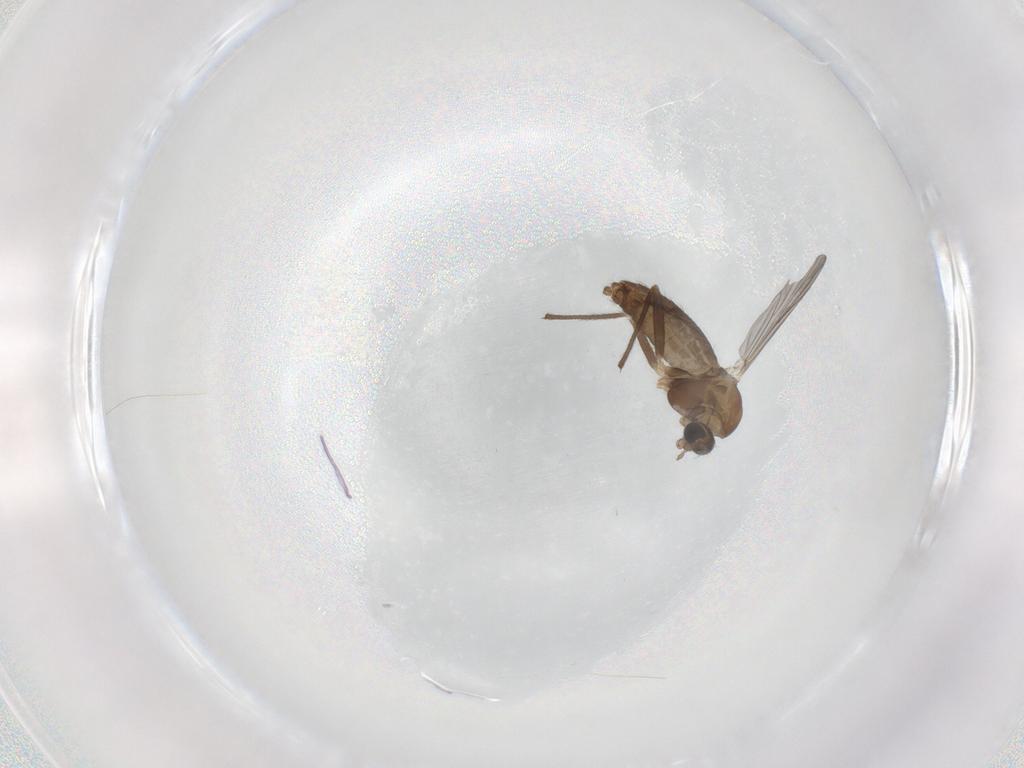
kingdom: Animalia
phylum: Arthropoda
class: Insecta
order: Diptera
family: Chironomidae
